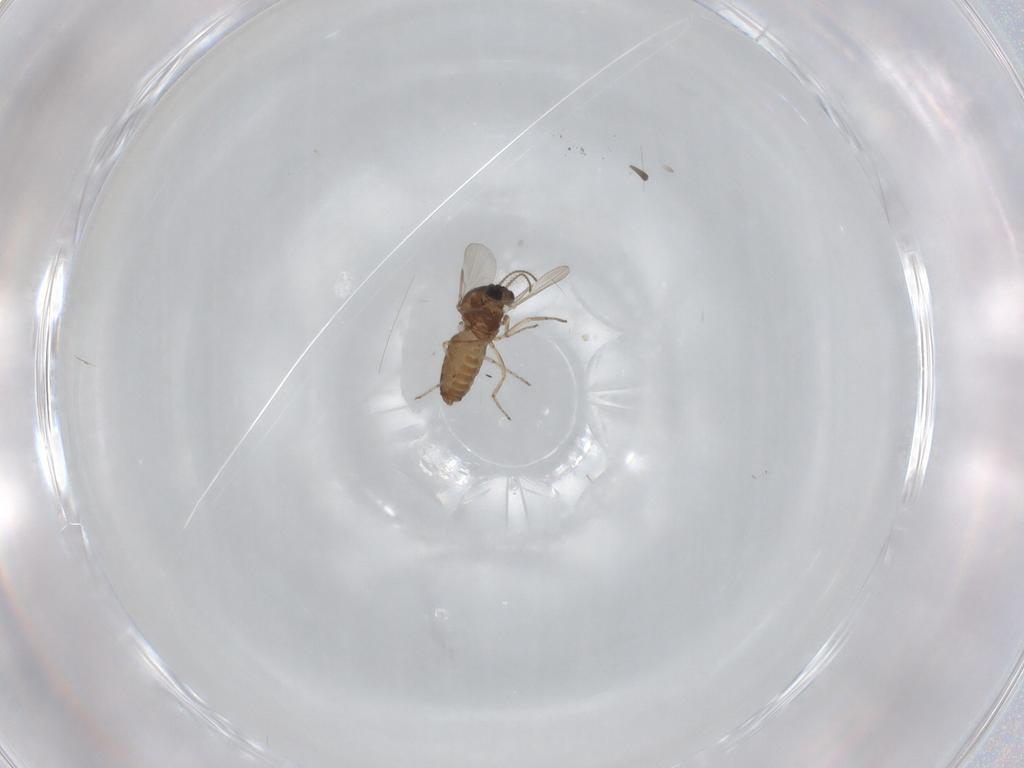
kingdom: Animalia
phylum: Arthropoda
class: Insecta
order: Diptera
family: Ceratopogonidae
